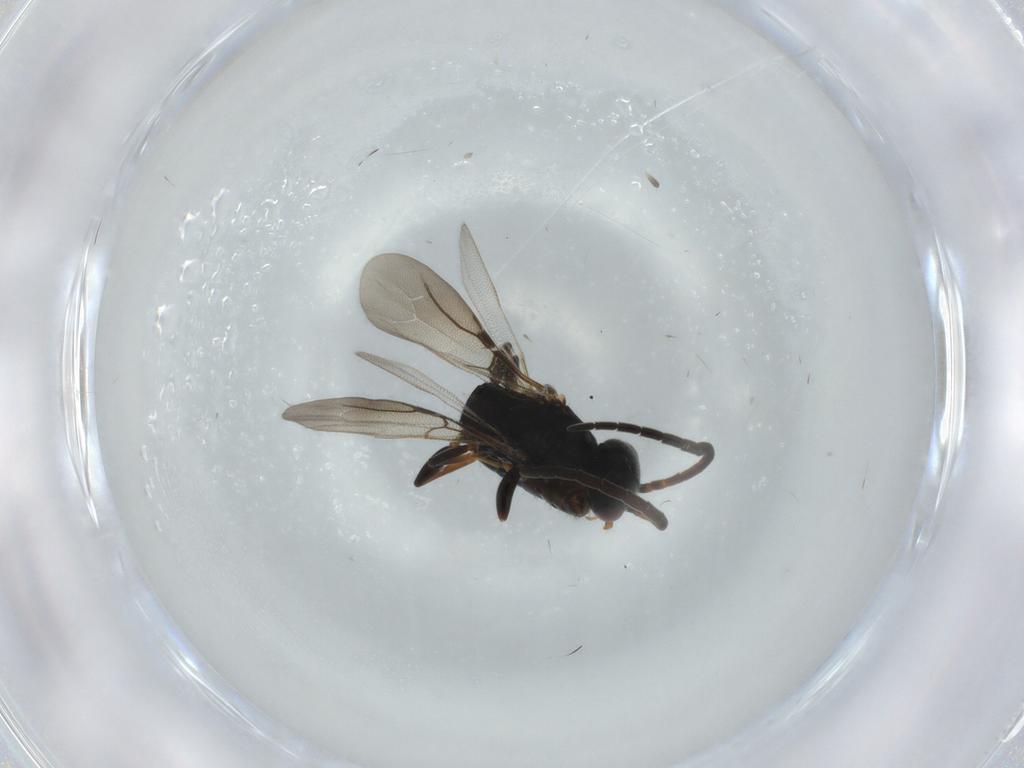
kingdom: Animalia
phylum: Arthropoda
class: Insecta
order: Hymenoptera
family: Bethylidae
